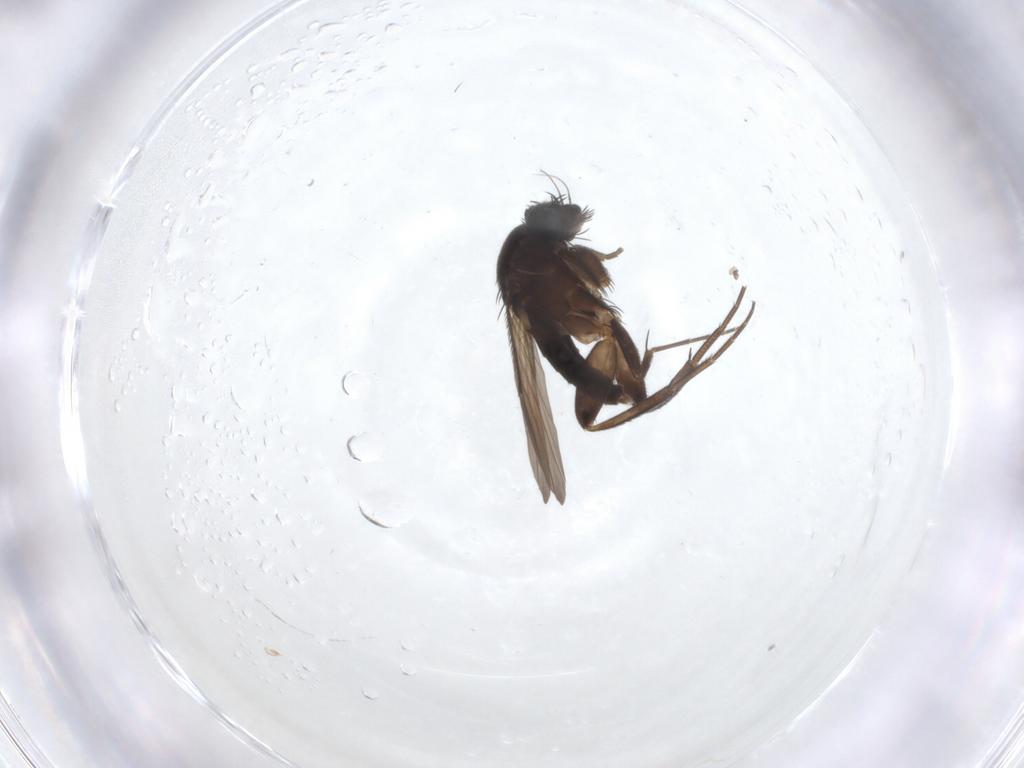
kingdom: Animalia
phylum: Arthropoda
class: Insecta
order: Diptera
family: Phoridae
